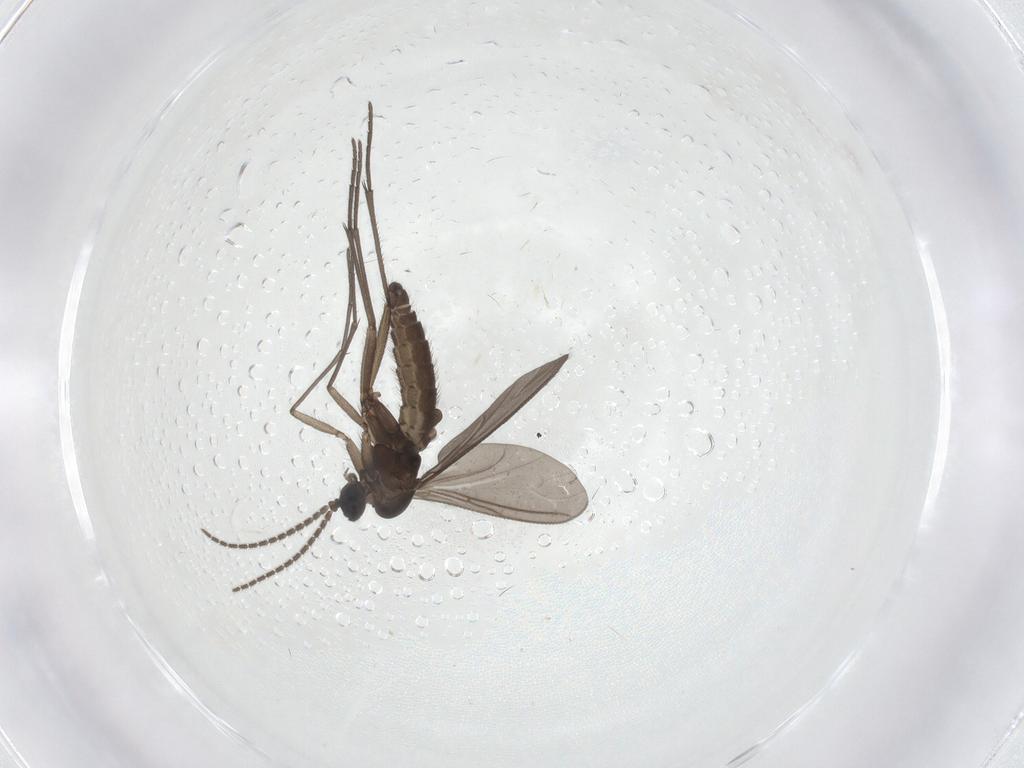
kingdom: Animalia
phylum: Arthropoda
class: Insecta
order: Diptera
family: Sciaridae
